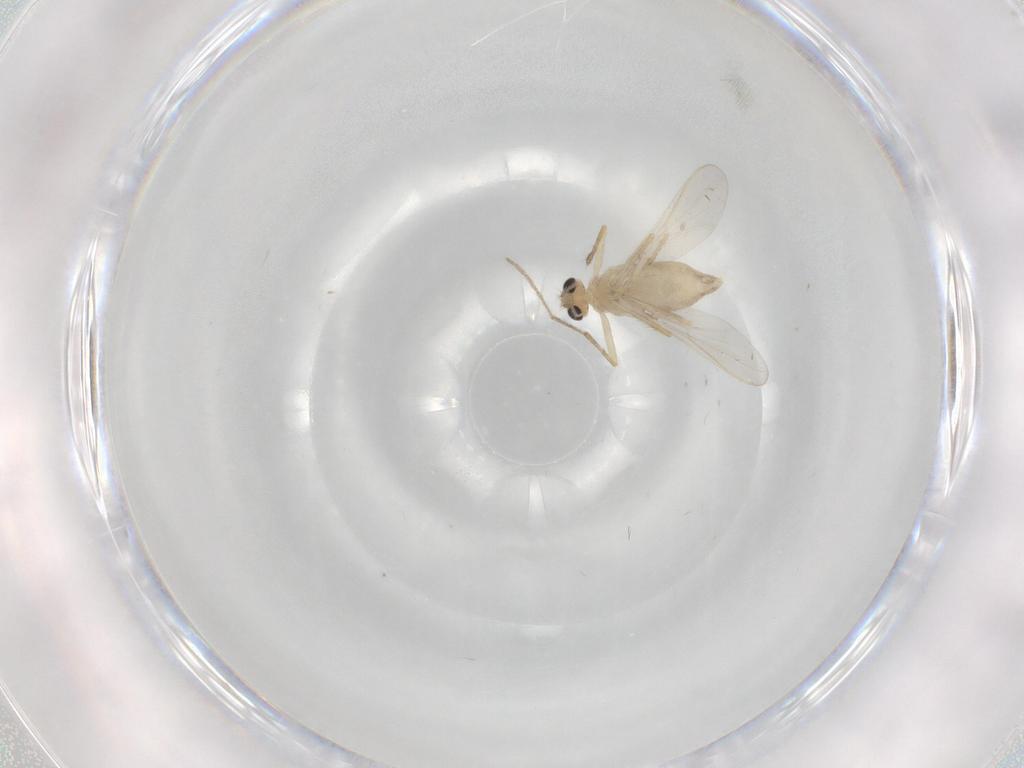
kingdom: Animalia
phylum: Arthropoda
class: Insecta
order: Diptera
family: Chironomidae
